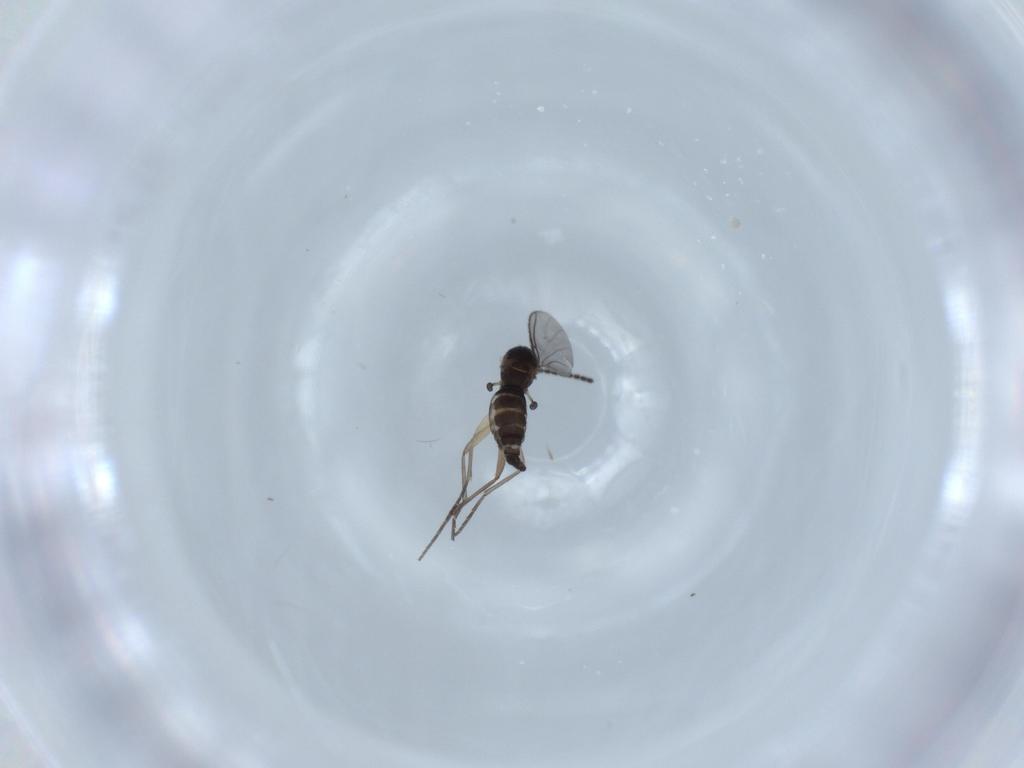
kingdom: Animalia
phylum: Arthropoda
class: Insecta
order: Diptera
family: Sciaridae
